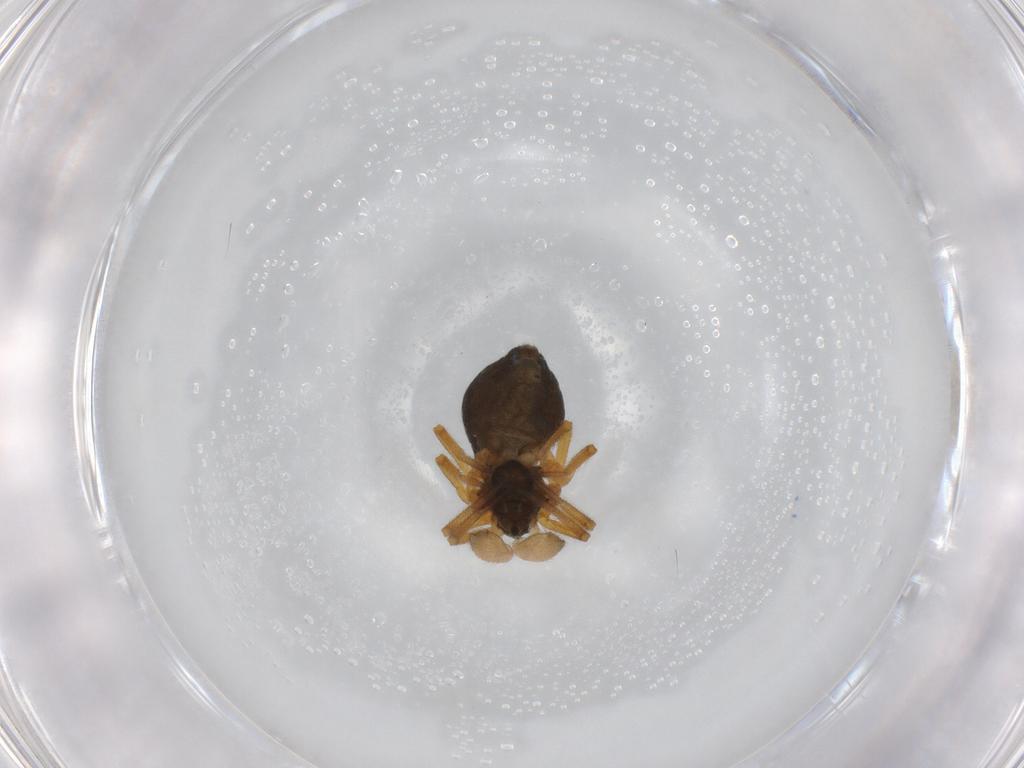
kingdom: Animalia
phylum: Arthropoda
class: Arachnida
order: Araneae
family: Linyphiidae
